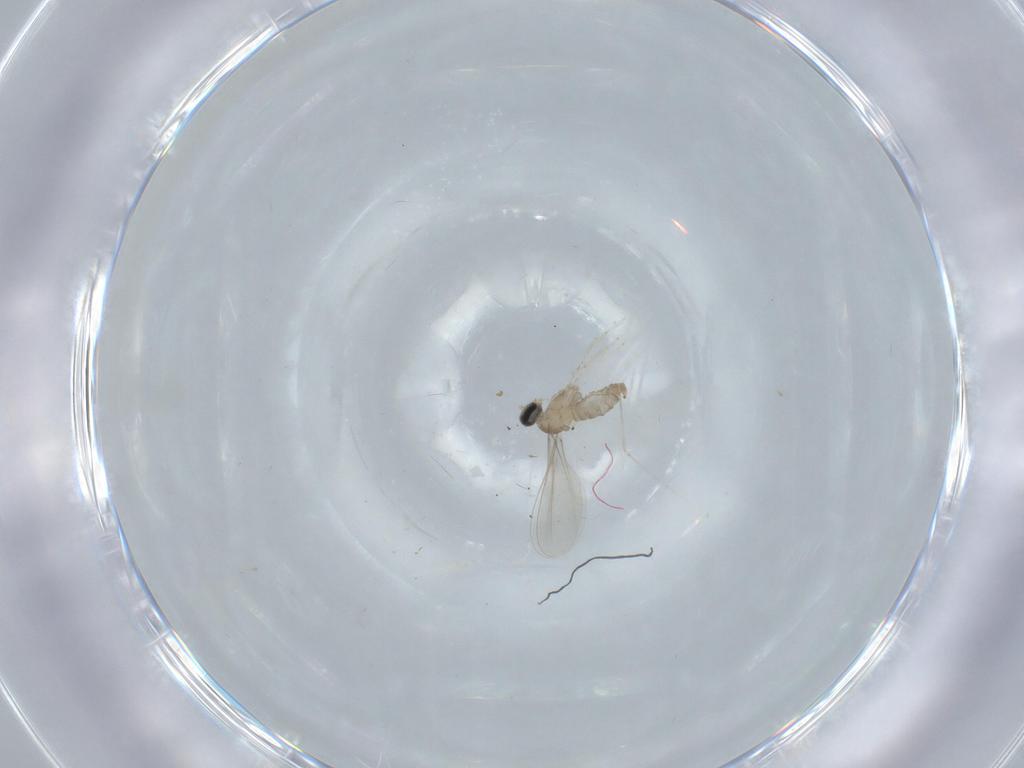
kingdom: Animalia
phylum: Arthropoda
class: Insecta
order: Diptera
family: Cecidomyiidae
